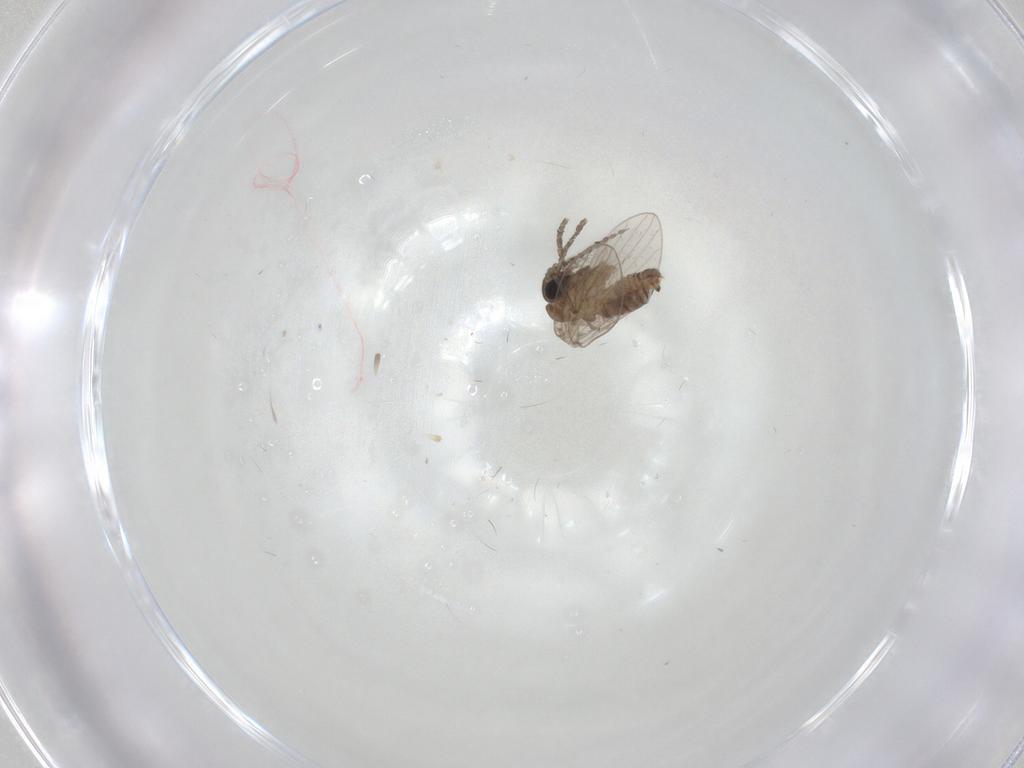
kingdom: Animalia
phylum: Arthropoda
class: Insecta
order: Diptera
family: Psychodidae
